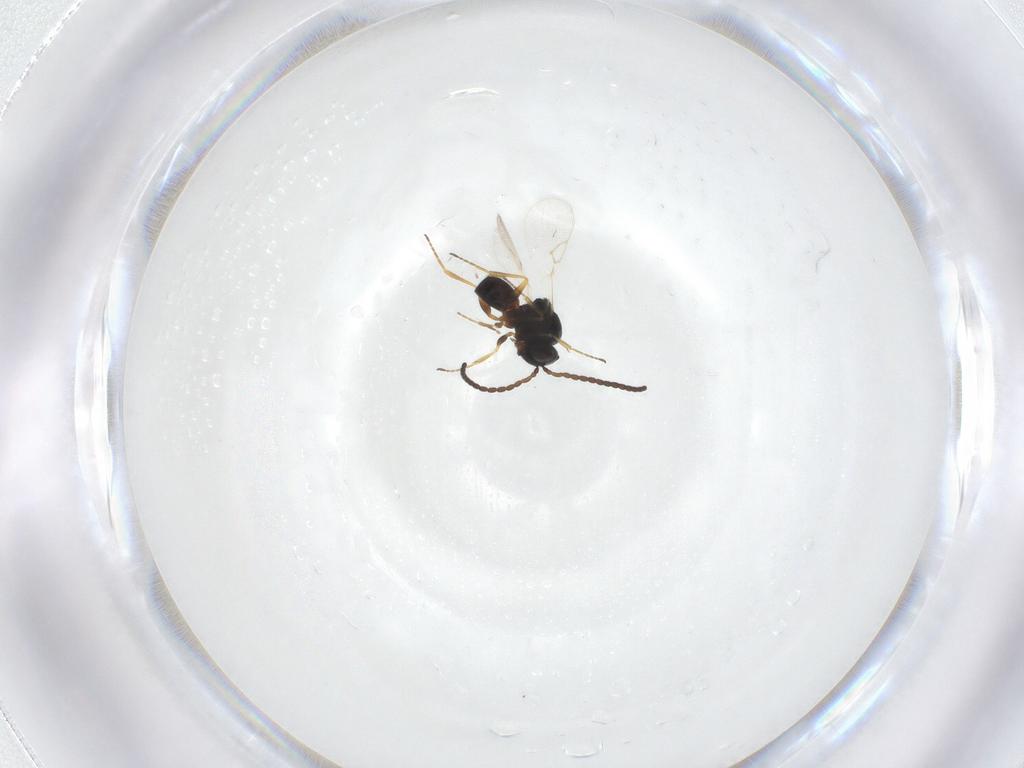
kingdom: Animalia
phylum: Arthropoda
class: Insecta
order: Hymenoptera
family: Figitidae
